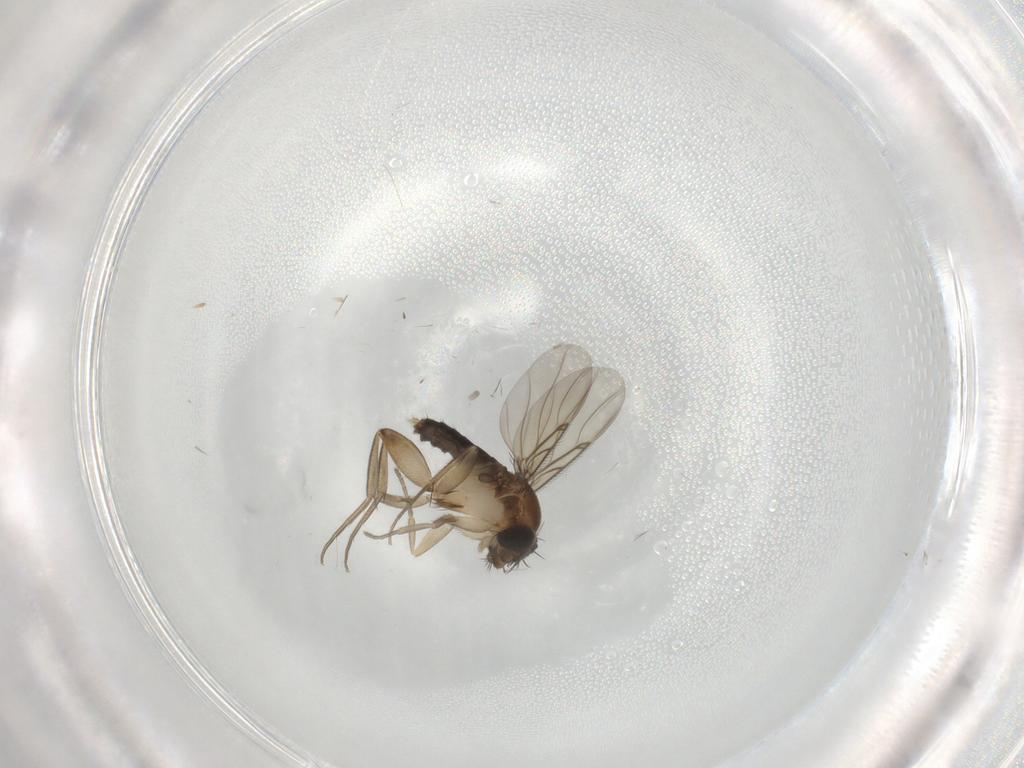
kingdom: Animalia
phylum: Arthropoda
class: Insecta
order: Diptera
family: Phoridae
